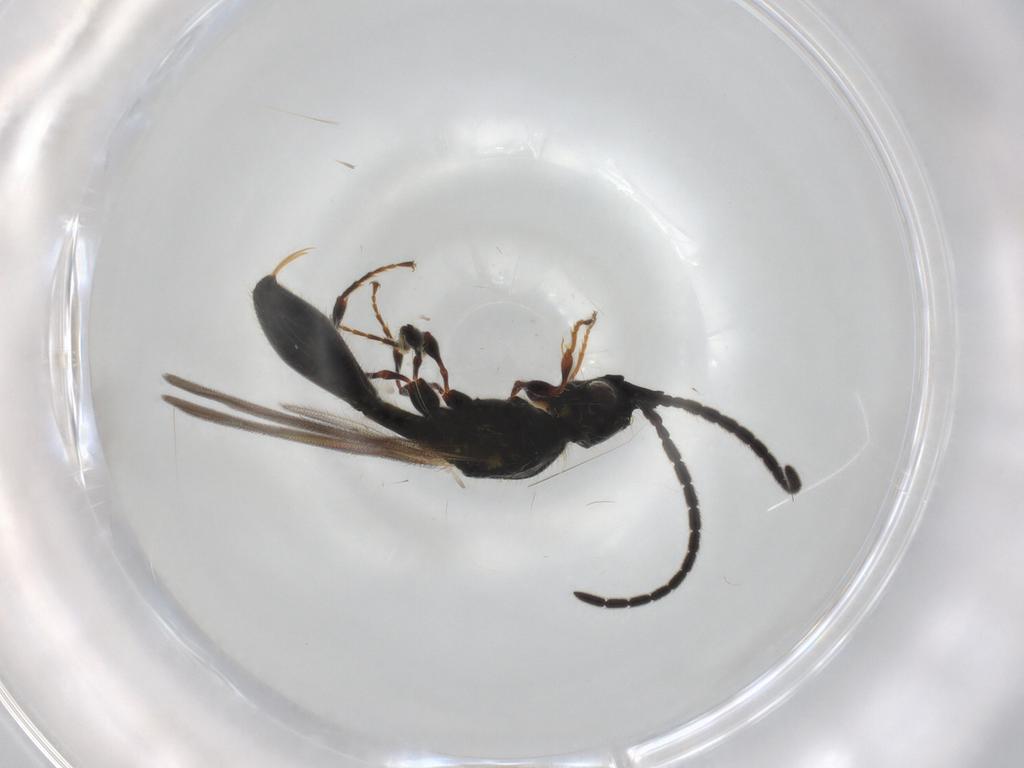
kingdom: Animalia
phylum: Arthropoda
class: Insecta
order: Hymenoptera
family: Diapriidae
